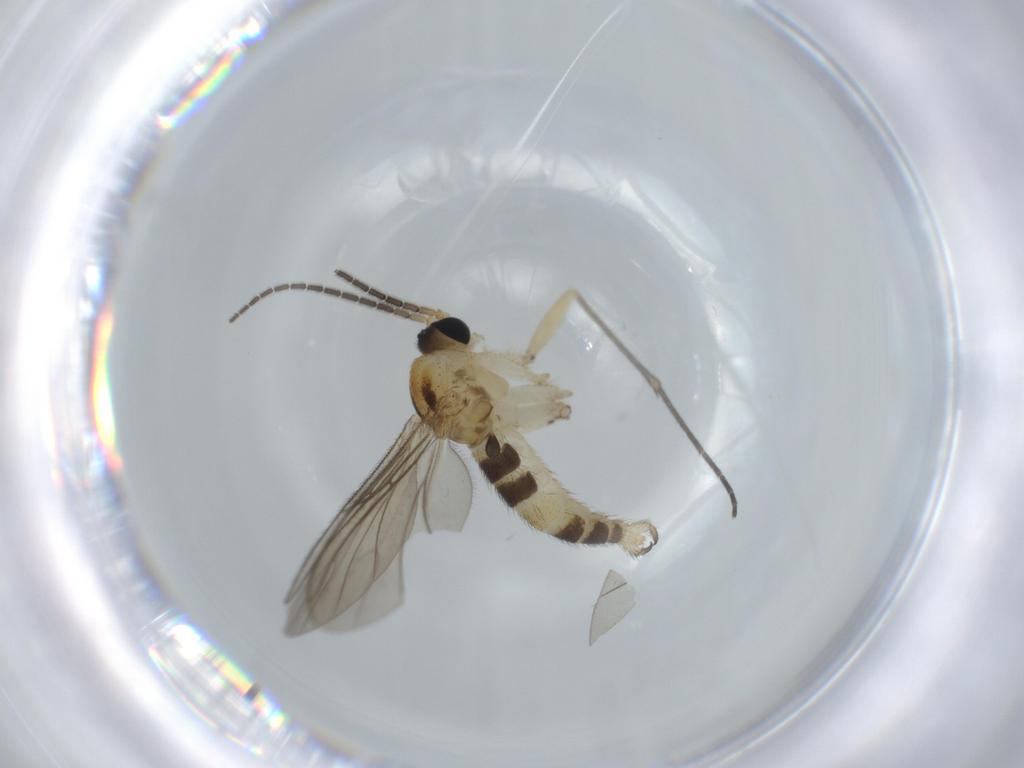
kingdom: Animalia
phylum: Arthropoda
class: Insecta
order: Diptera
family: Sciaridae
